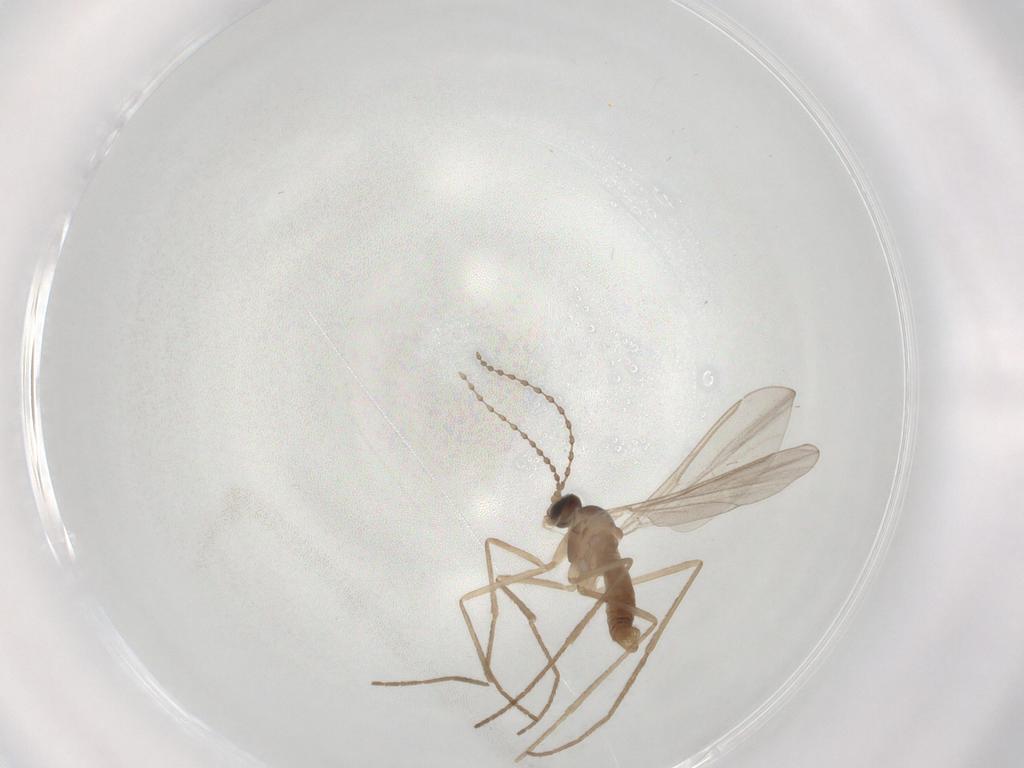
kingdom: Animalia
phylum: Arthropoda
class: Insecta
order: Diptera
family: Cecidomyiidae
